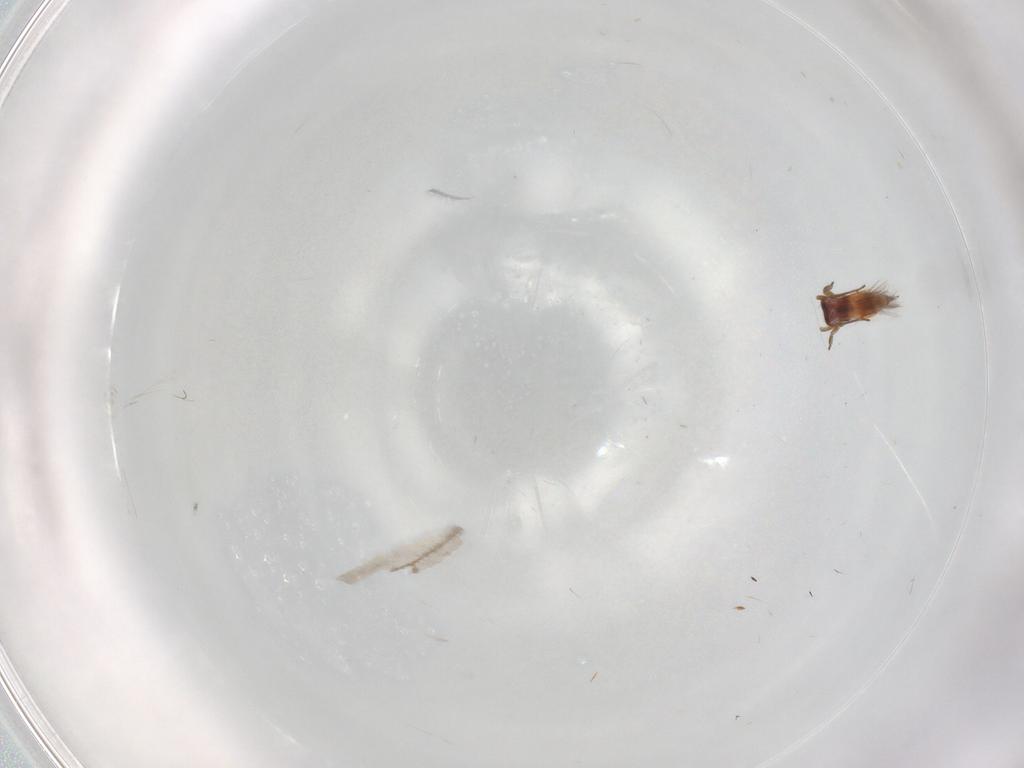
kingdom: Animalia
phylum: Arthropoda
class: Insecta
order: Thysanoptera
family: Aeolothripidae
